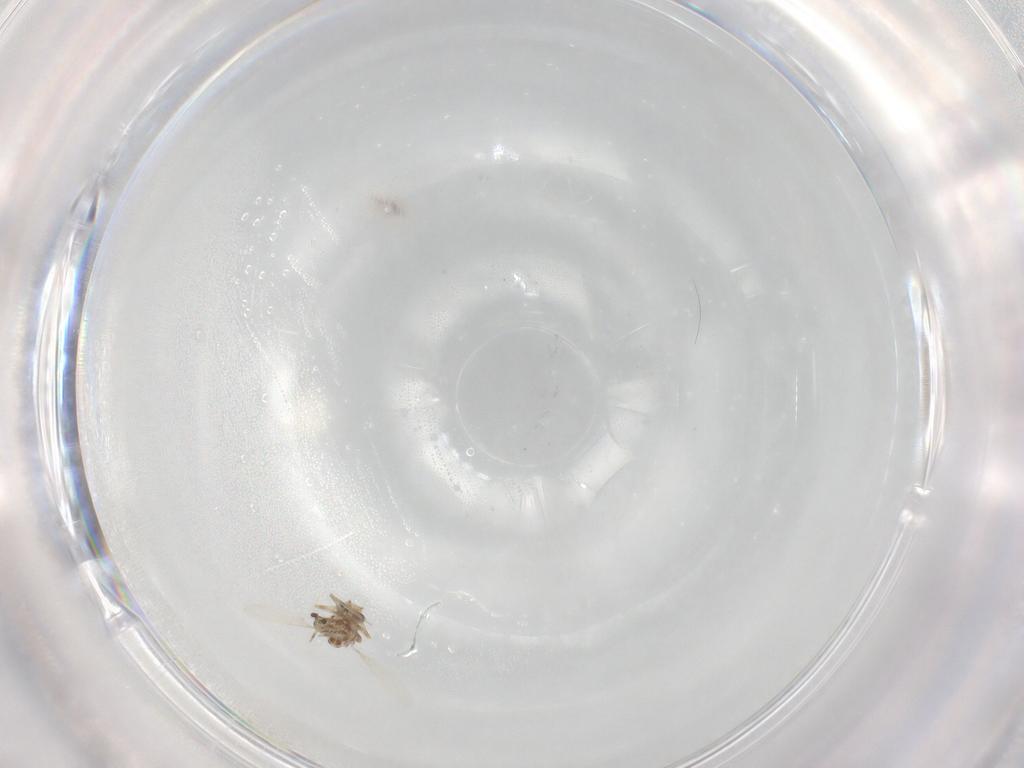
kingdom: Animalia
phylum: Arthropoda
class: Insecta
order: Diptera
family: Ceratopogonidae
